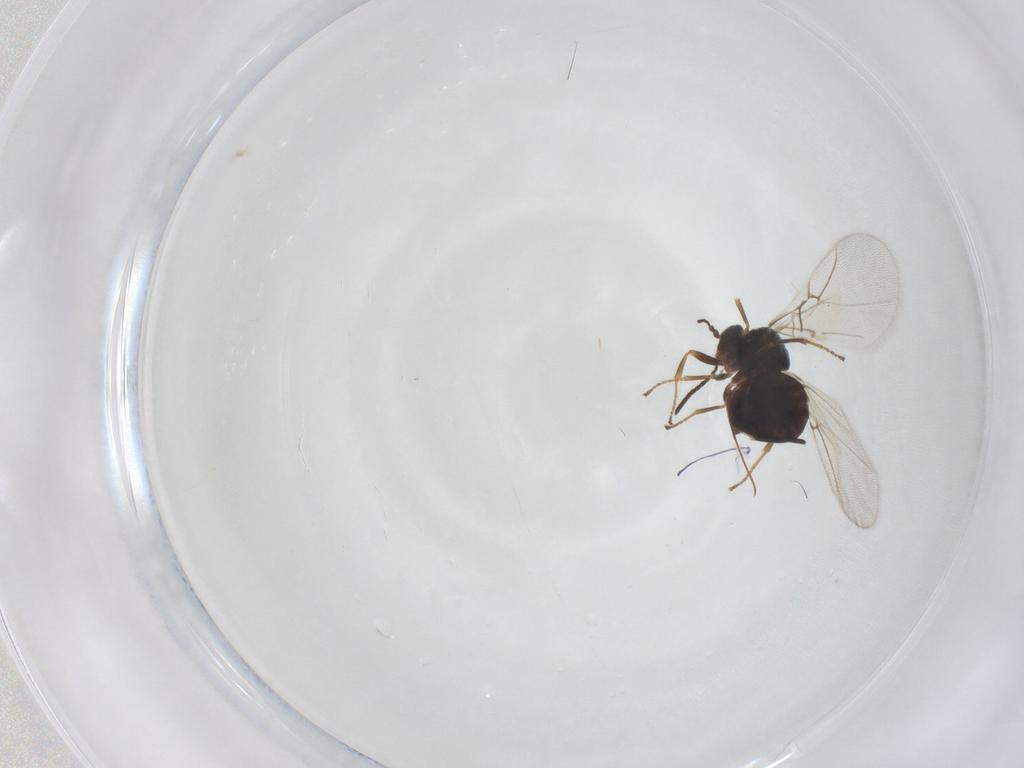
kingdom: Animalia
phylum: Arthropoda
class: Insecta
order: Hymenoptera
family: Cynipidae
